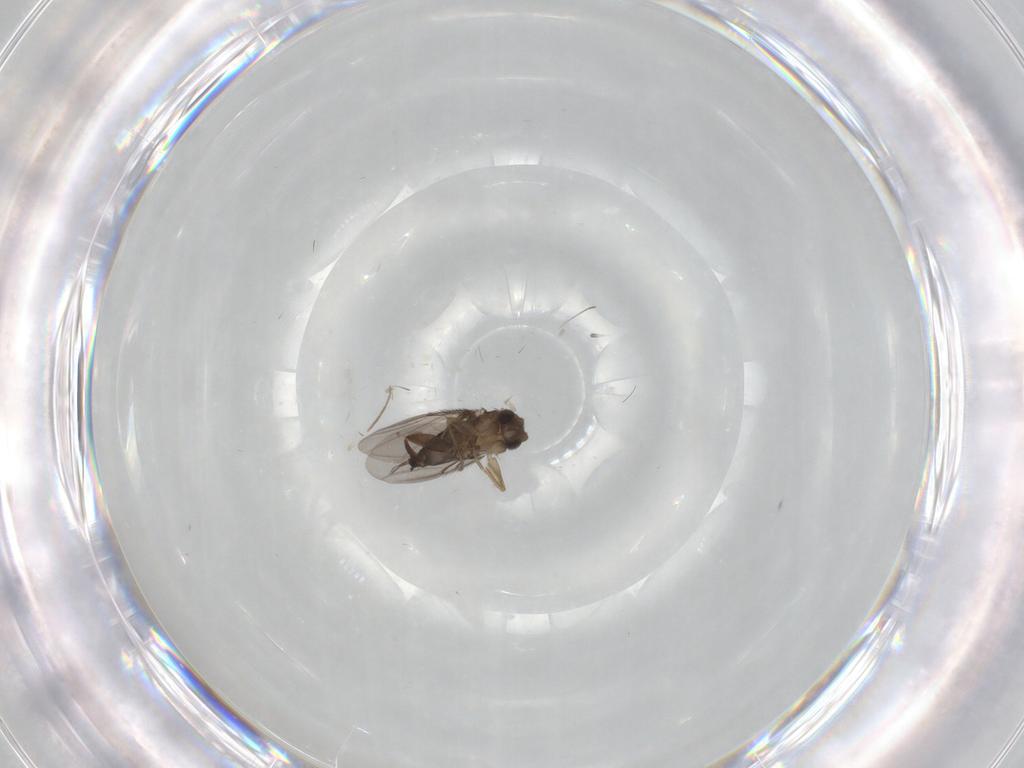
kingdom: Animalia
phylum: Arthropoda
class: Insecta
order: Diptera
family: Phoridae
